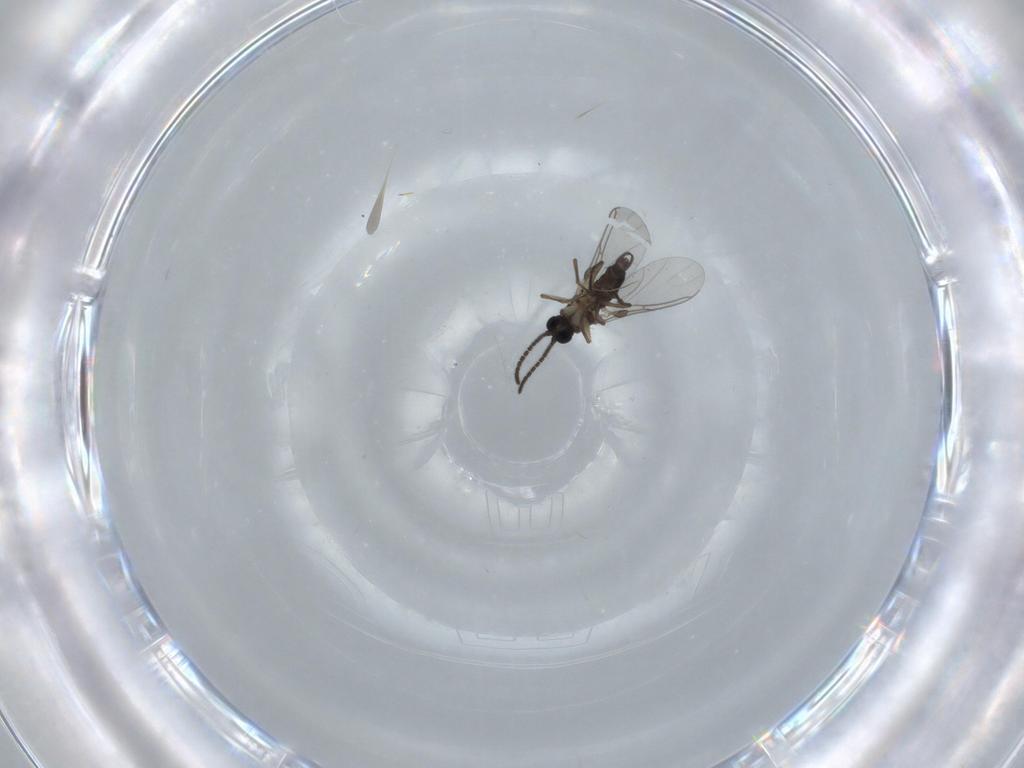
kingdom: Animalia
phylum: Arthropoda
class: Insecta
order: Diptera
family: Sciaridae
